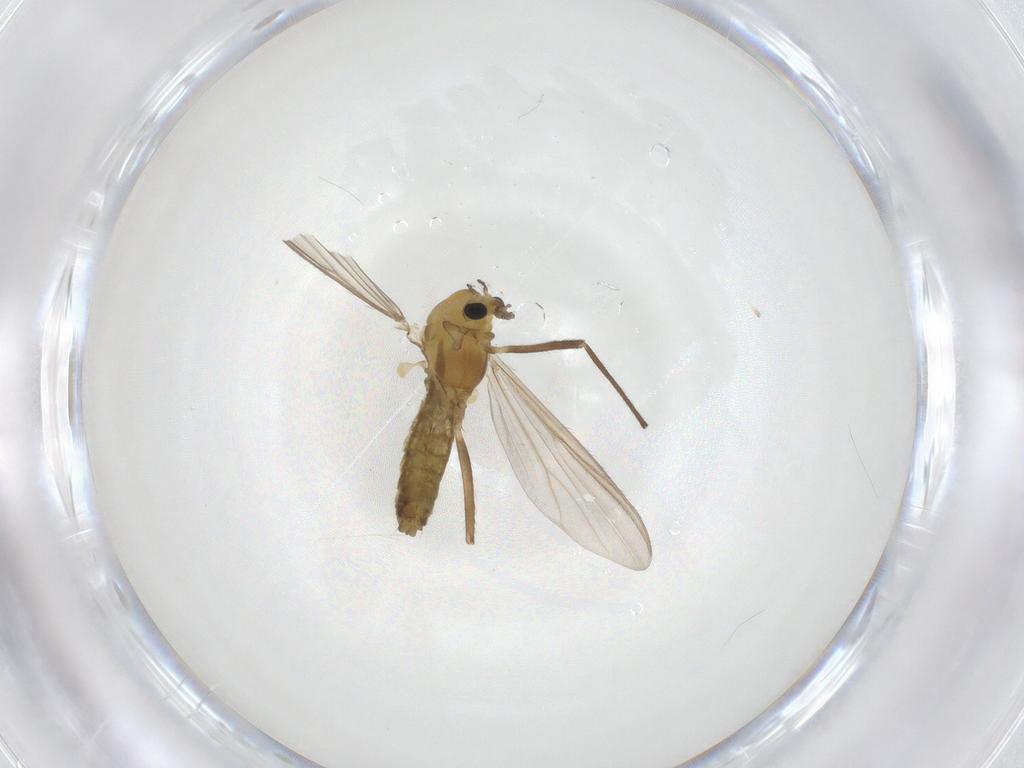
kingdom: Animalia
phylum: Arthropoda
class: Insecta
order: Diptera
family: Chironomidae
